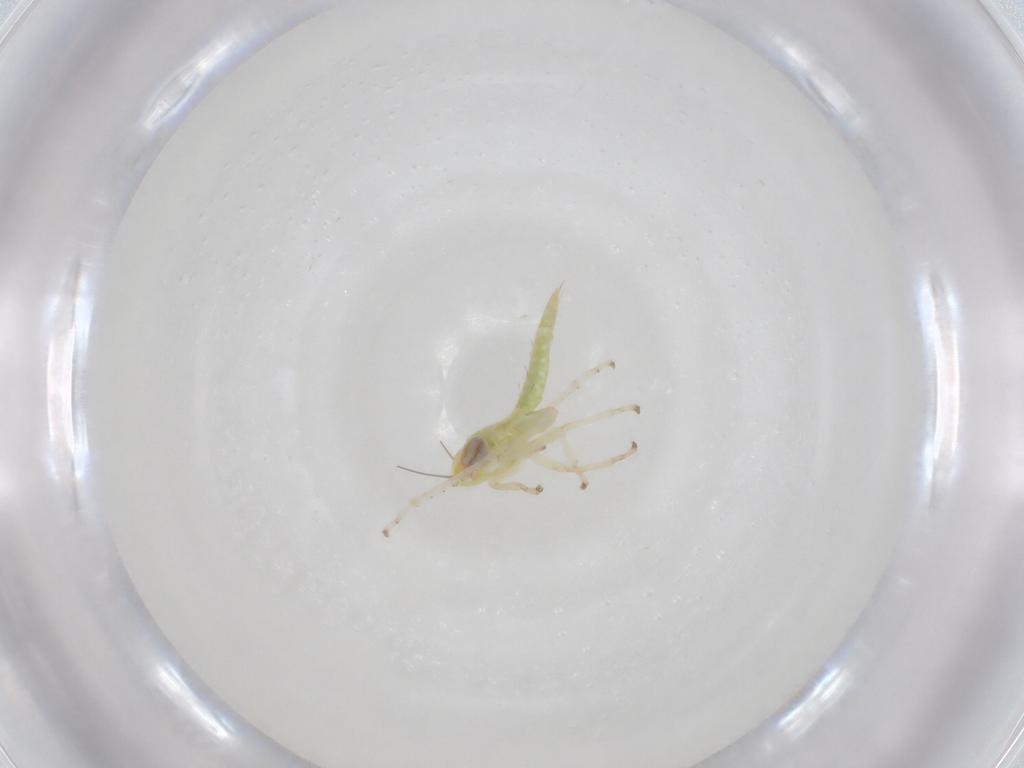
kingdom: Animalia
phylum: Arthropoda
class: Insecta
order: Hemiptera
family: Cicadellidae
